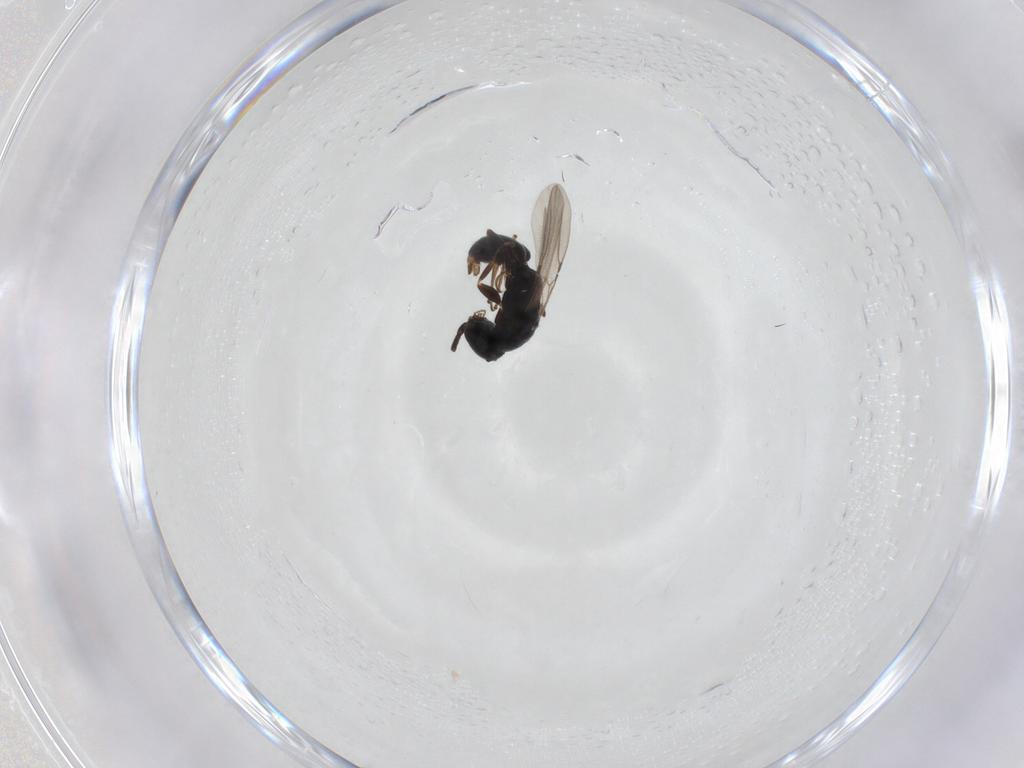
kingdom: Animalia
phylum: Arthropoda
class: Insecta
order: Hymenoptera
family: Bethylidae
